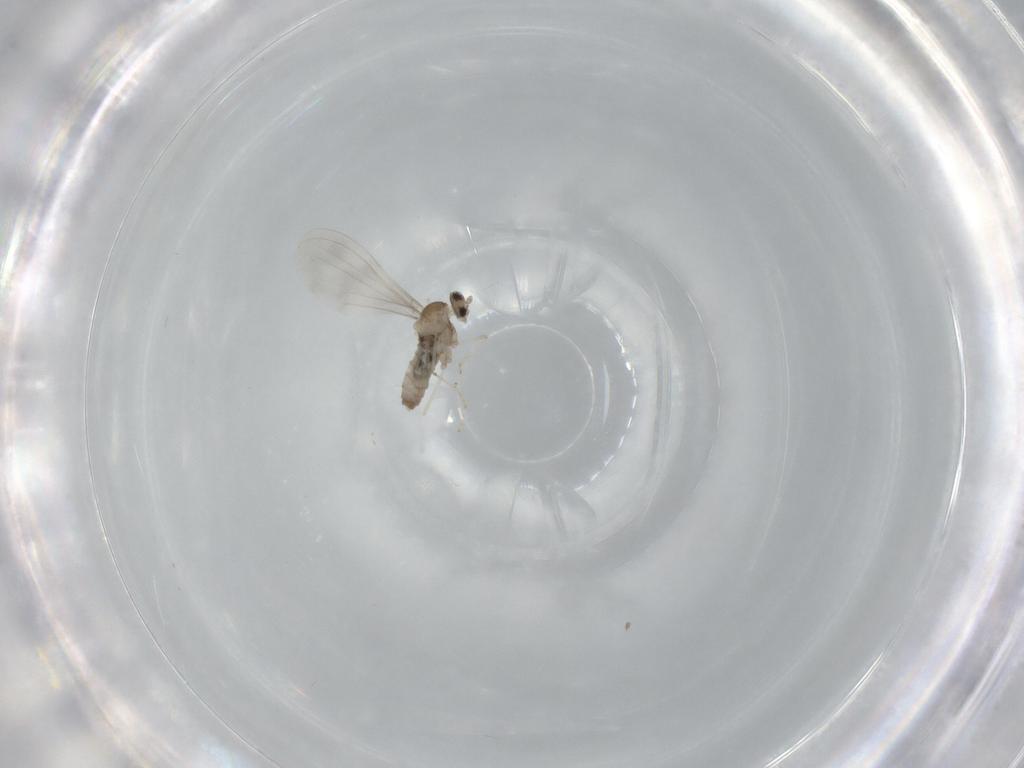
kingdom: Animalia
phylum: Arthropoda
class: Insecta
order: Diptera
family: Cecidomyiidae
